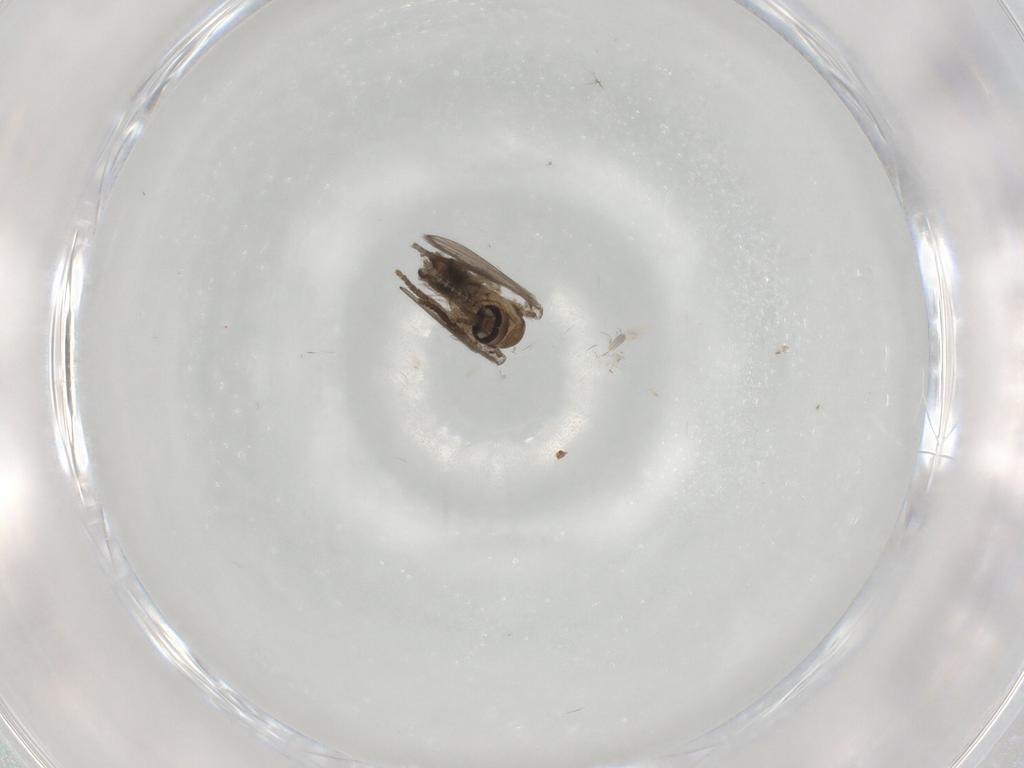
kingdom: Animalia
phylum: Arthropoda
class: Insecta
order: Diptera
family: Psychodidae
